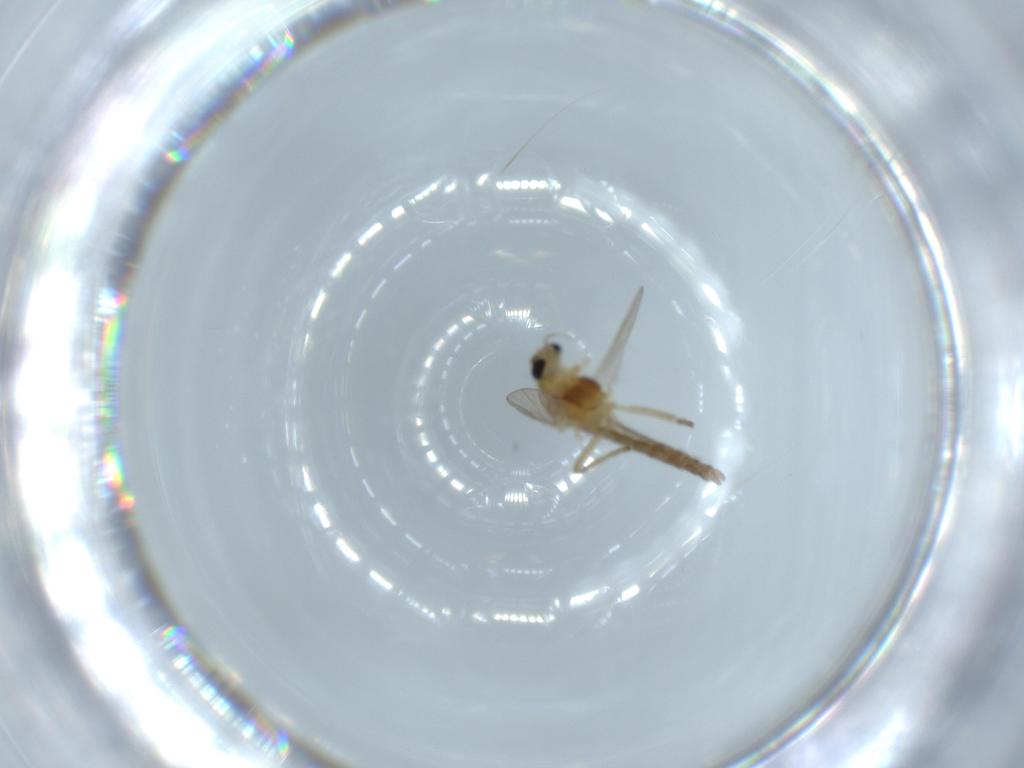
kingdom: Animalia
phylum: Arthropoda
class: Insecta
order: Diptera
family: Chironomidae
